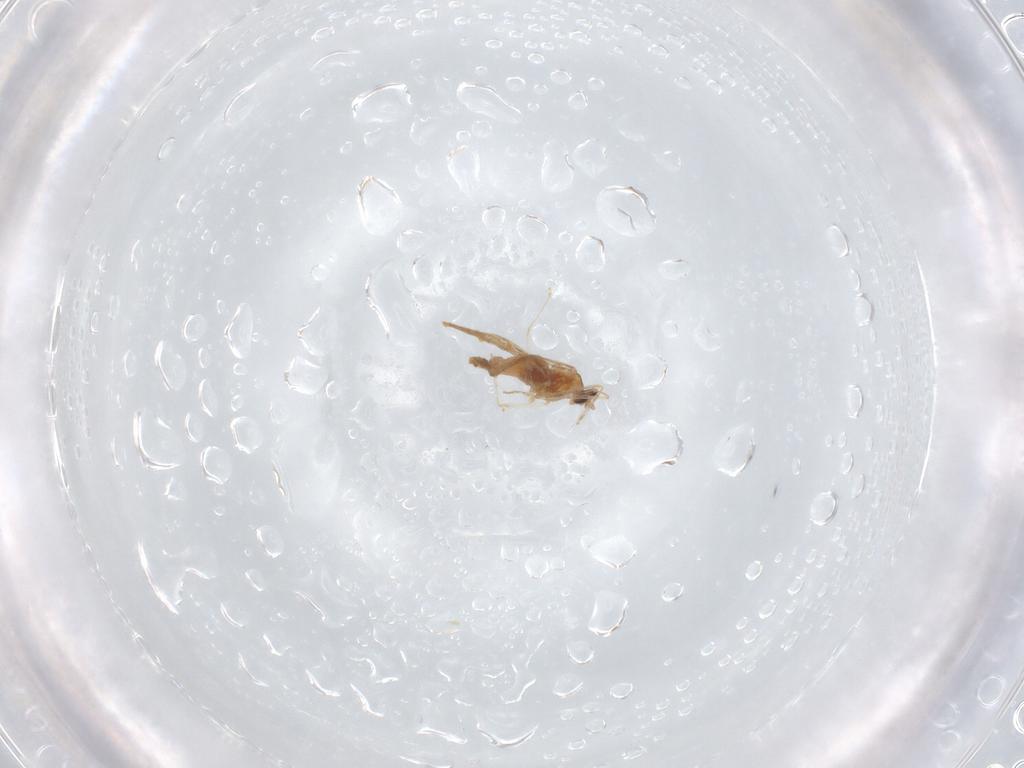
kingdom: Animalia
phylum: Arthropoda
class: Insecta
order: Diptera
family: Cecidomyiidae
